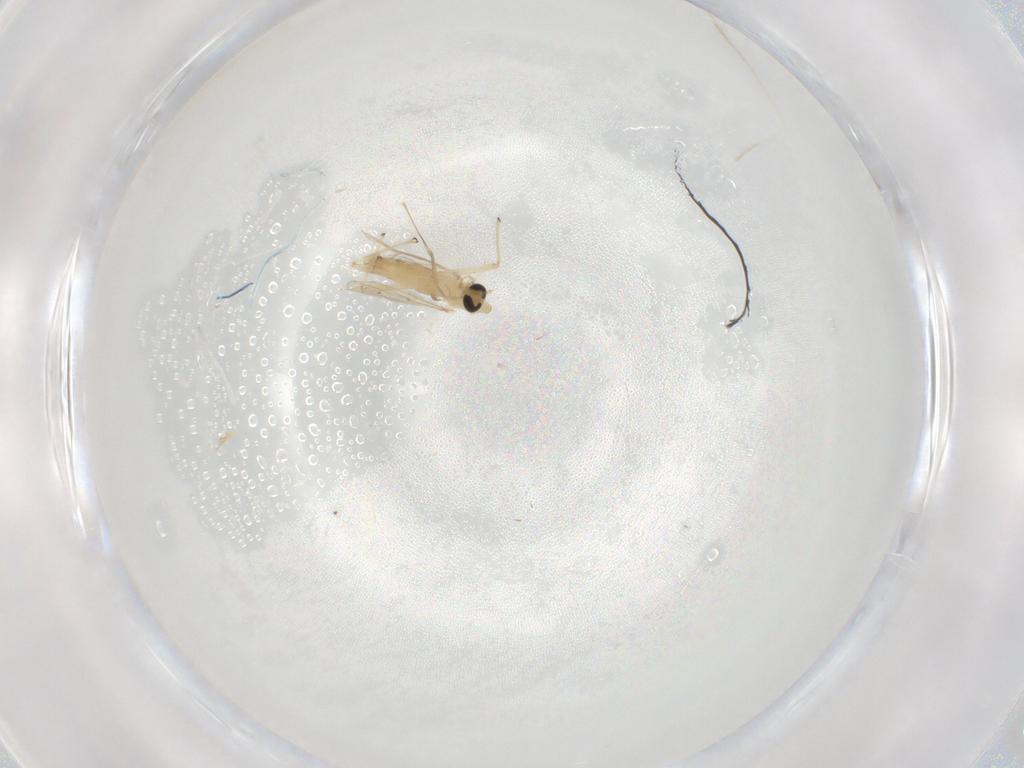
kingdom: Animalia
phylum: Arthropoda
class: Insecta
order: Diptera
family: Chironomidae
